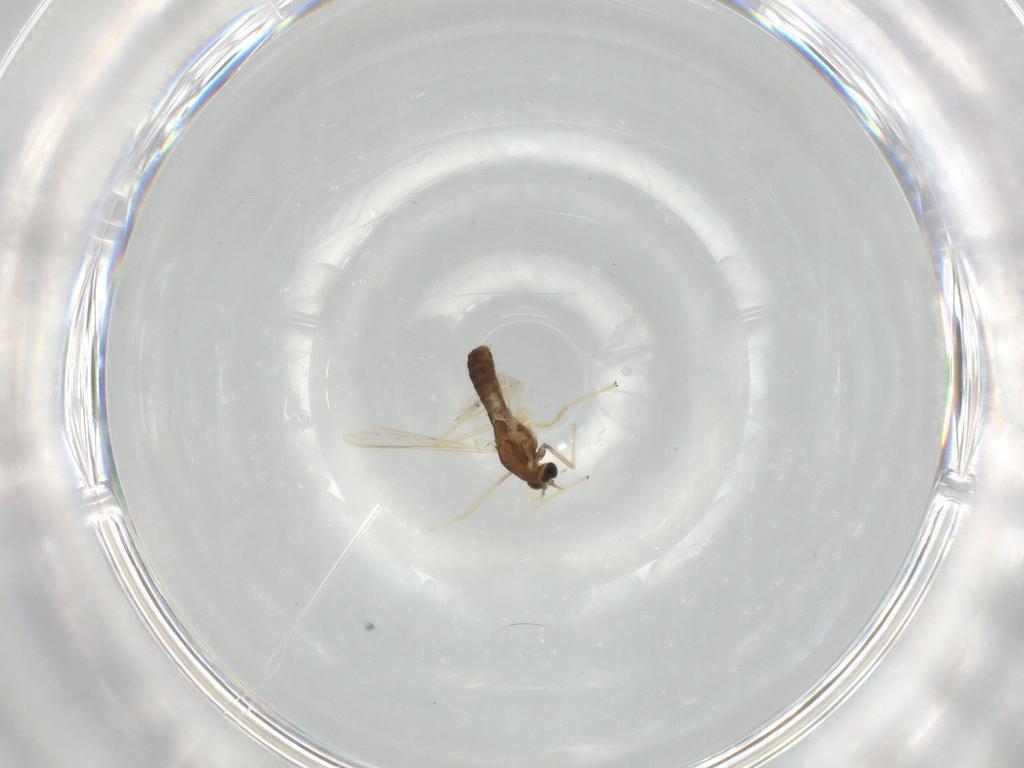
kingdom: Animalia
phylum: Arthropoda
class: Insecta
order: Diptera
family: Chironomidae
